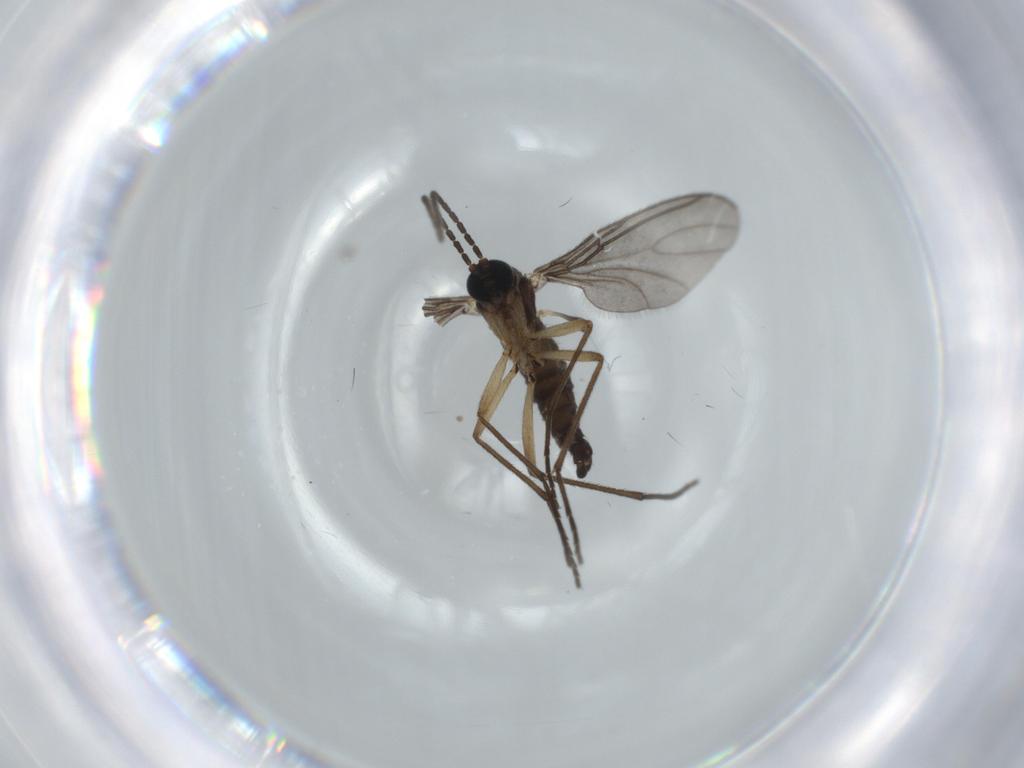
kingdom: Animalia
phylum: Arthropoda
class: Insecta
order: Diptera
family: Sciaridae
